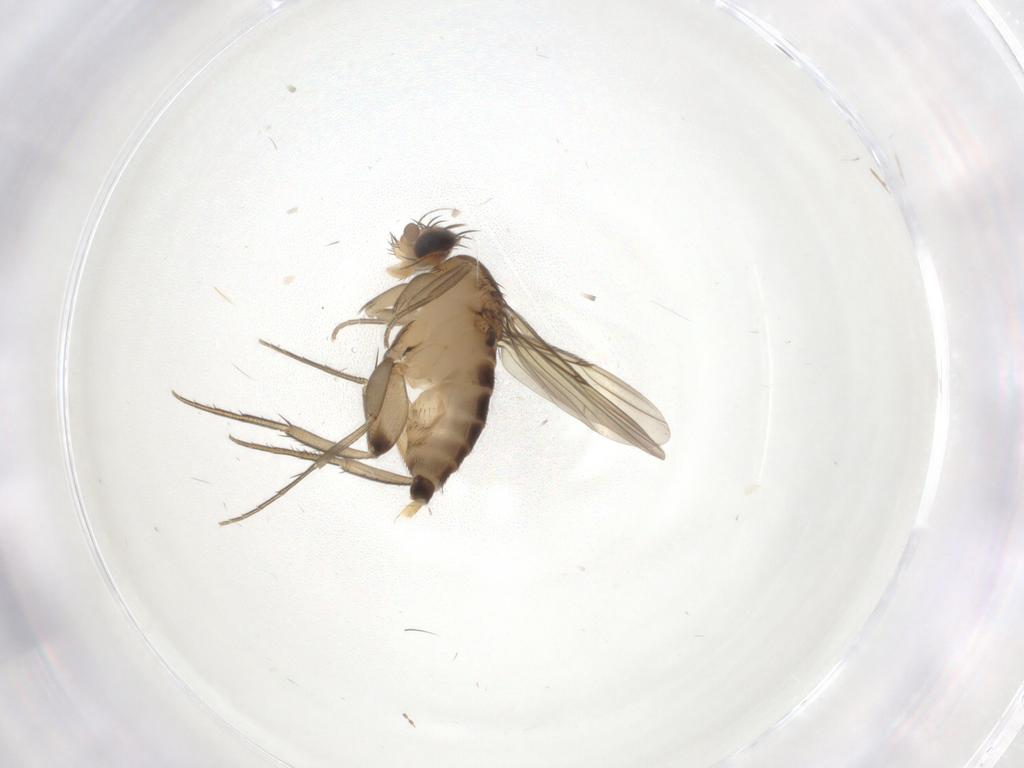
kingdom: Animalia
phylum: Arthropoda
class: Insecta
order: Diptera
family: Phoridae
